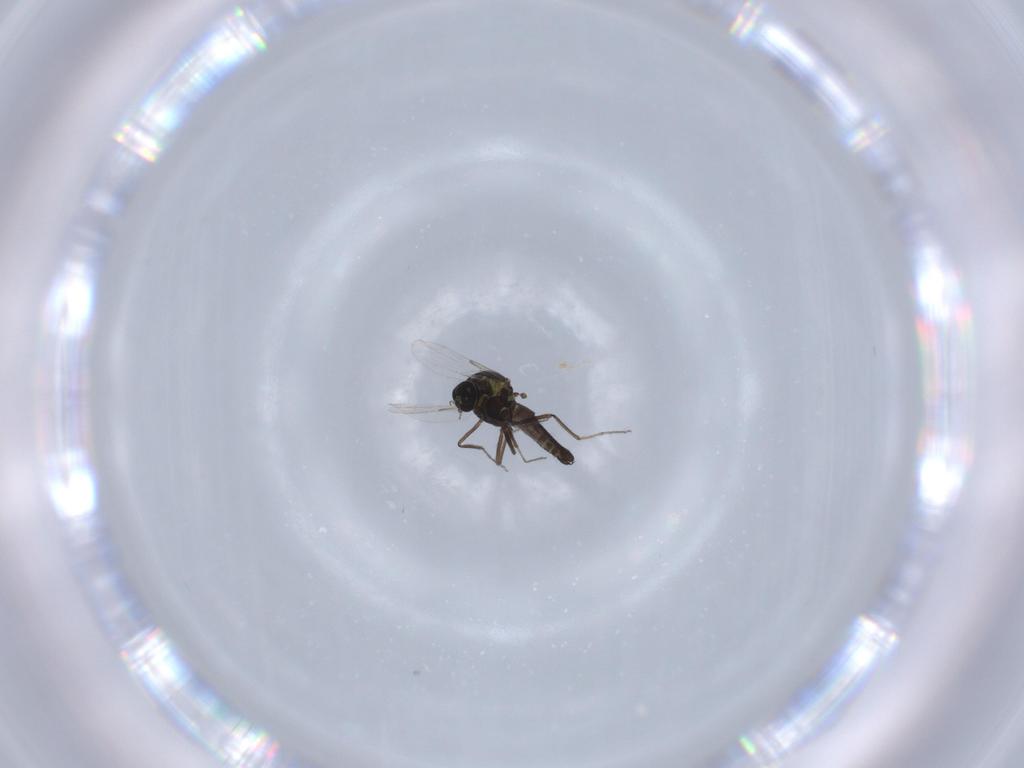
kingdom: Animalia
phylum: Arthropoda
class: Insecta
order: Diptera
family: Ceratopogonidae
